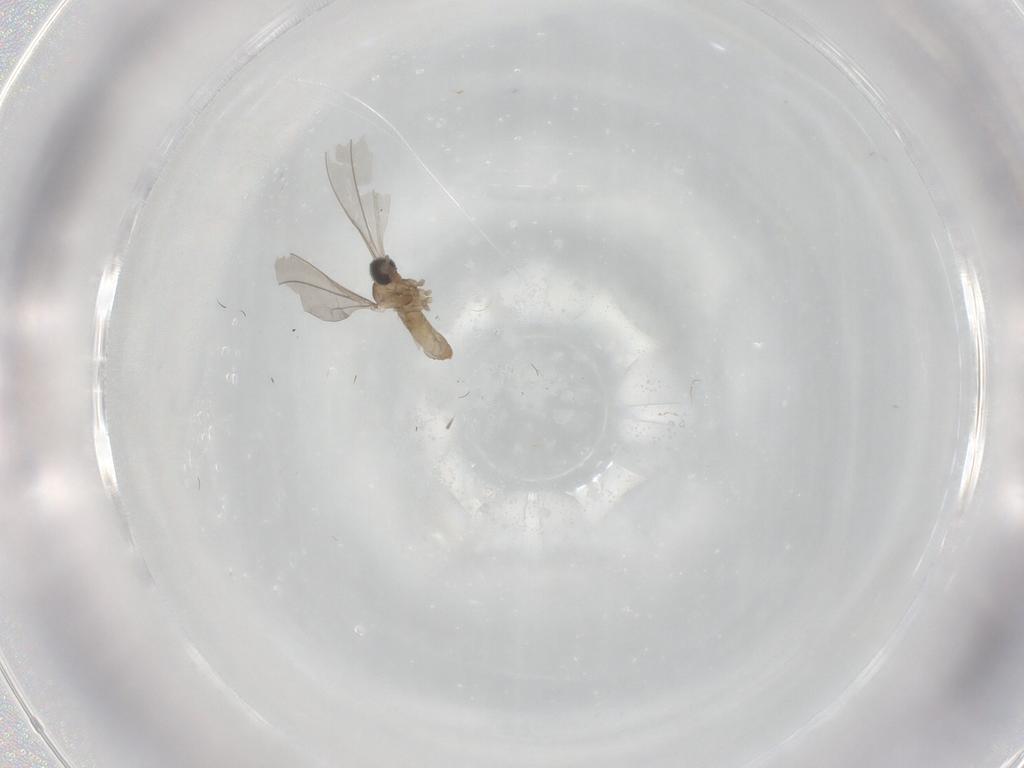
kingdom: Animalia
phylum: Arthropoda
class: Insecta
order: Diptera
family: Cecidomyiidae
